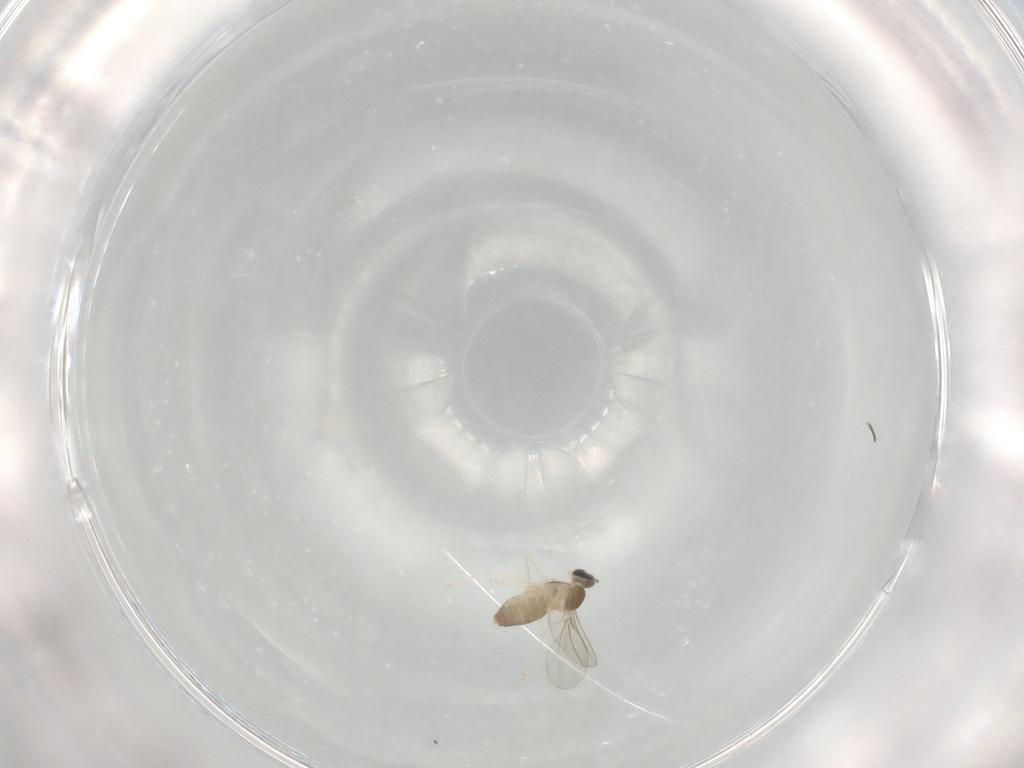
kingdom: Animalia
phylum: Arthropoda
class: Insecta
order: Diptera
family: Cecidomyiidae
